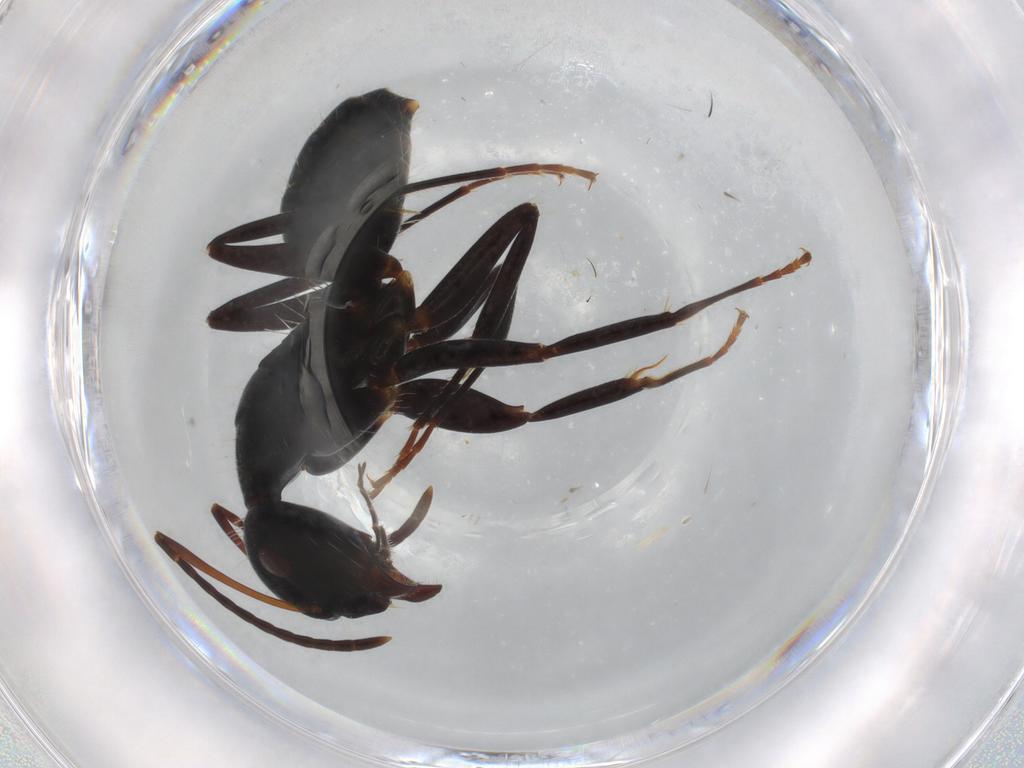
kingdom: Animalia
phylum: Arthropoda
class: Insecta
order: Hymenoptera
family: Formicidae
